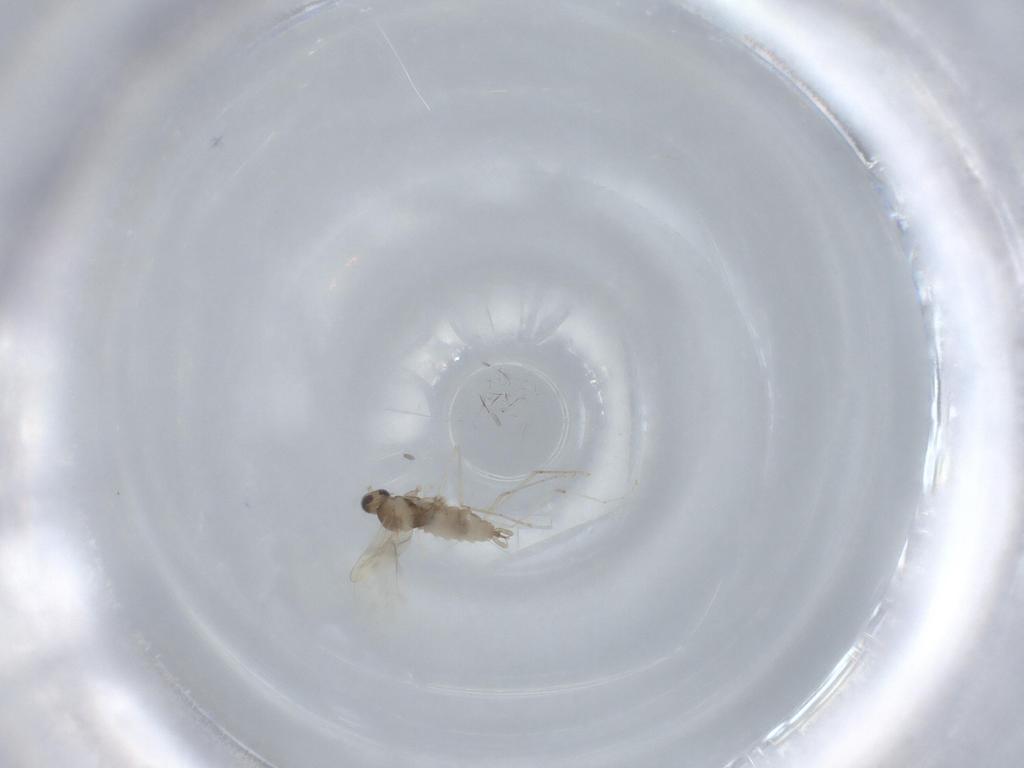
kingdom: Animalia
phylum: Arthropoda
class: Insecta
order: Diptera
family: Cecidomyiidae
